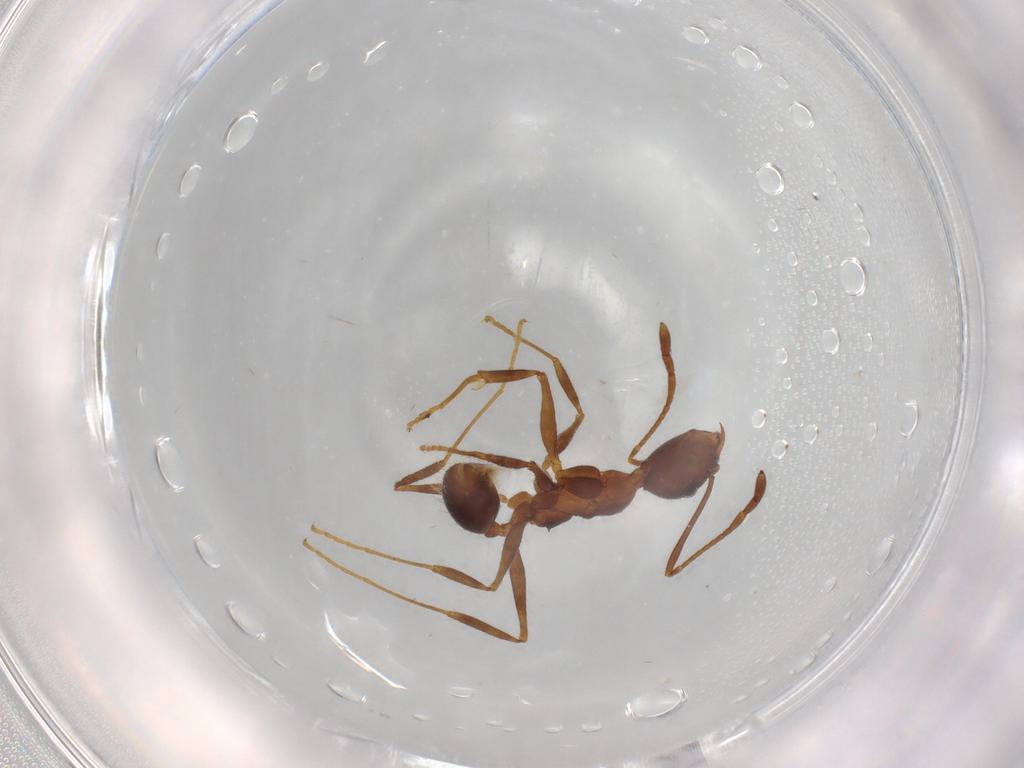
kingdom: Animalia
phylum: Arthropoda
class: Insecta
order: Hymenoptera
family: Figitidae
